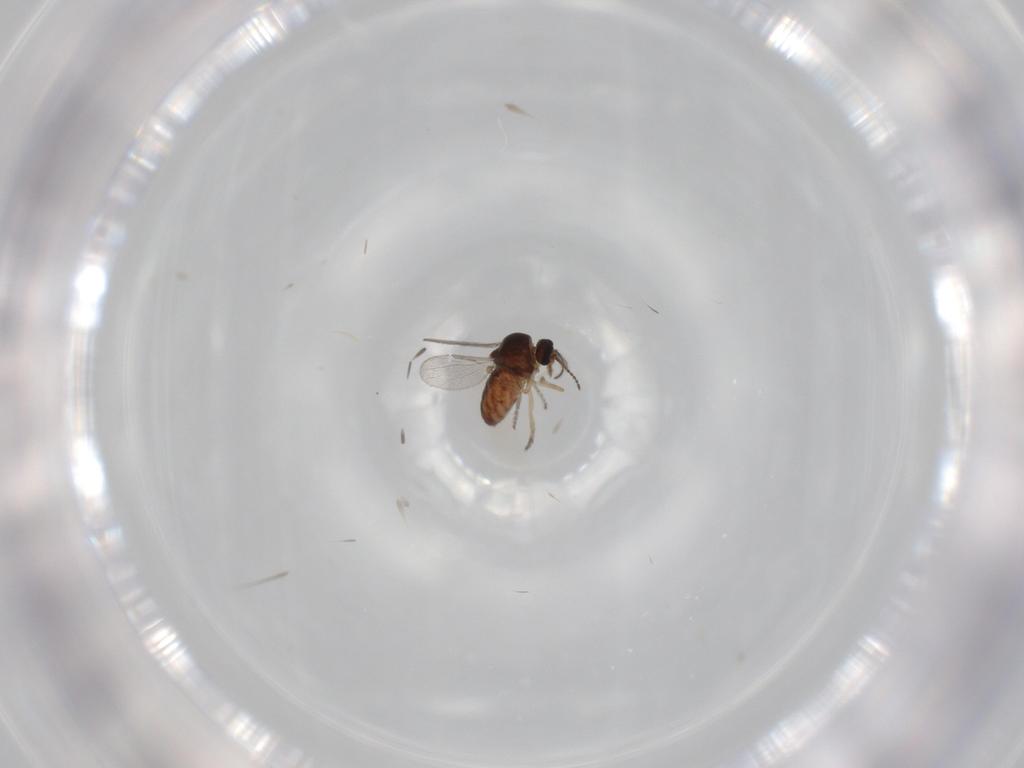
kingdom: Animalia
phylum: Arthropoda
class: Insecta
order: Diptera
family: Ceratopogonidae
